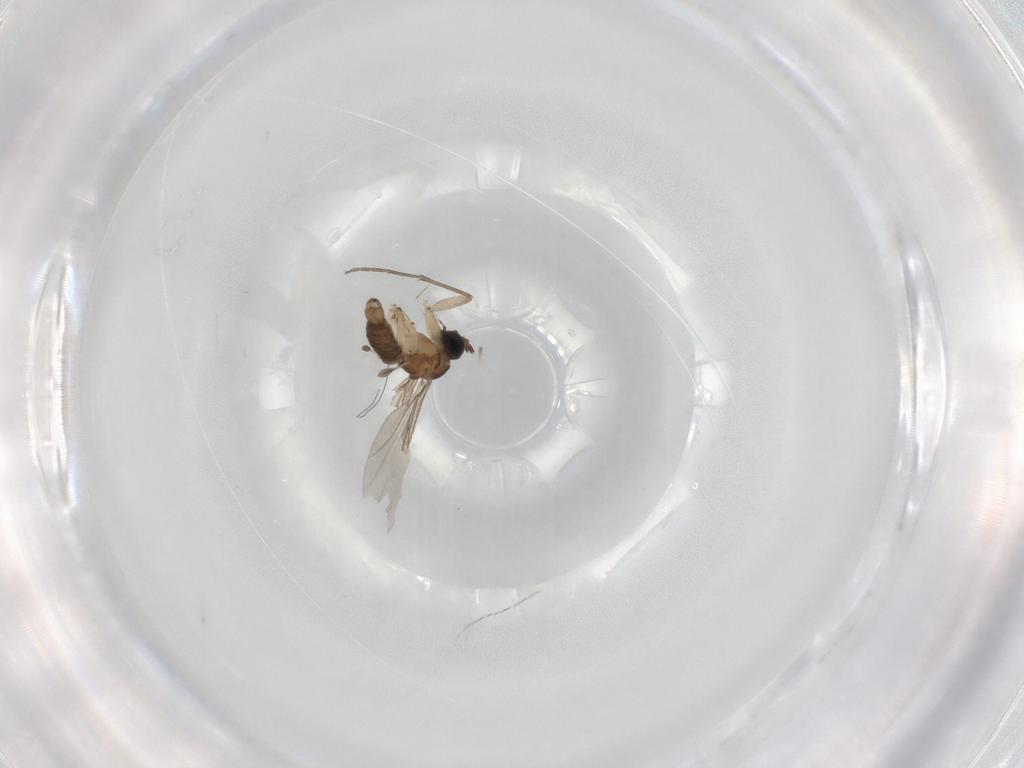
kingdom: Animalia
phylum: Arthropoda
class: Insecta
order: Diptera
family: Sciaridae
